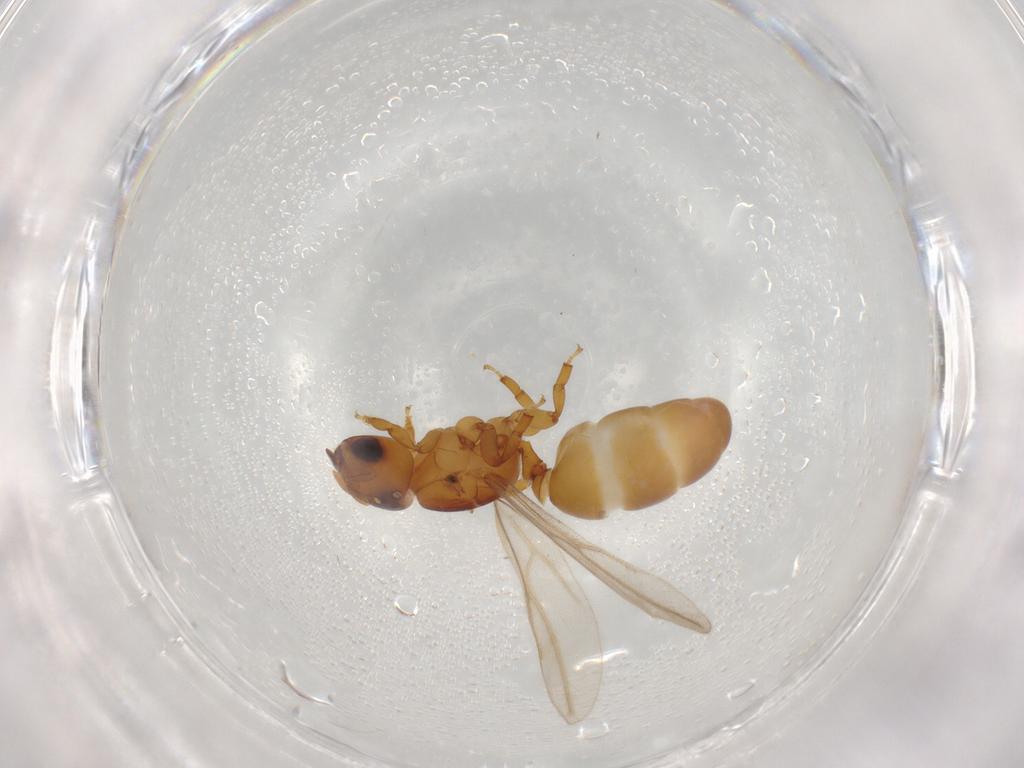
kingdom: Animalia
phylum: Arthropoda
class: Insecta
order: Hymenoptera
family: Formicidae
